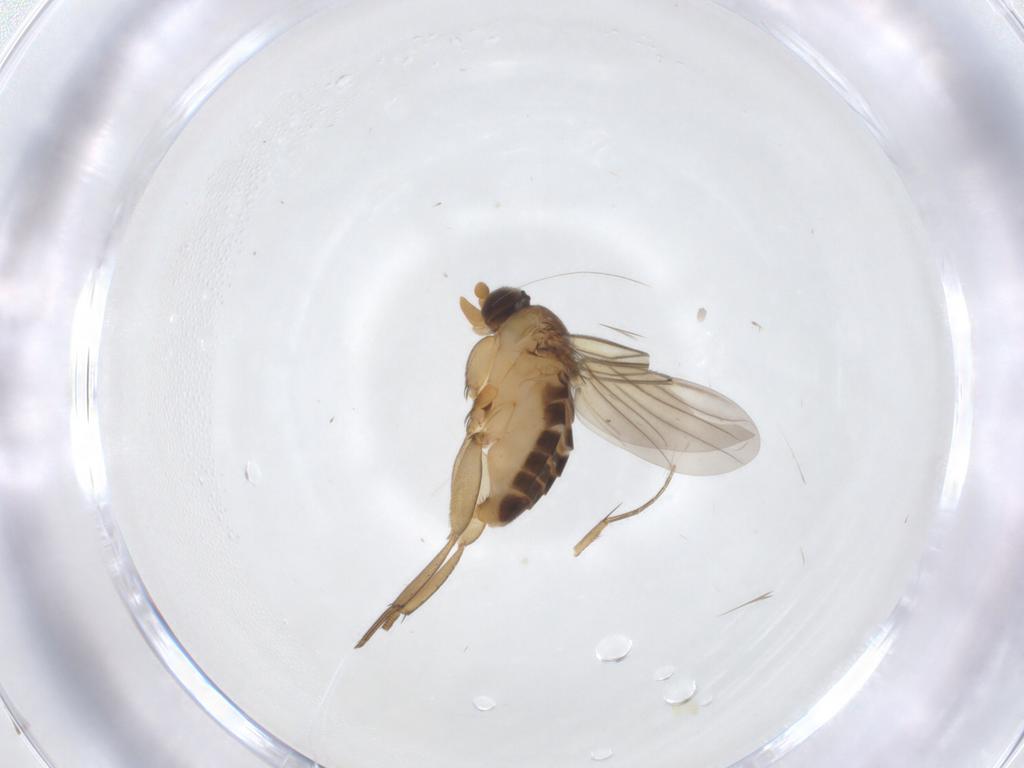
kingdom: Animalia
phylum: Arthropoda
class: Insecta
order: Diptera
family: Phoridae
